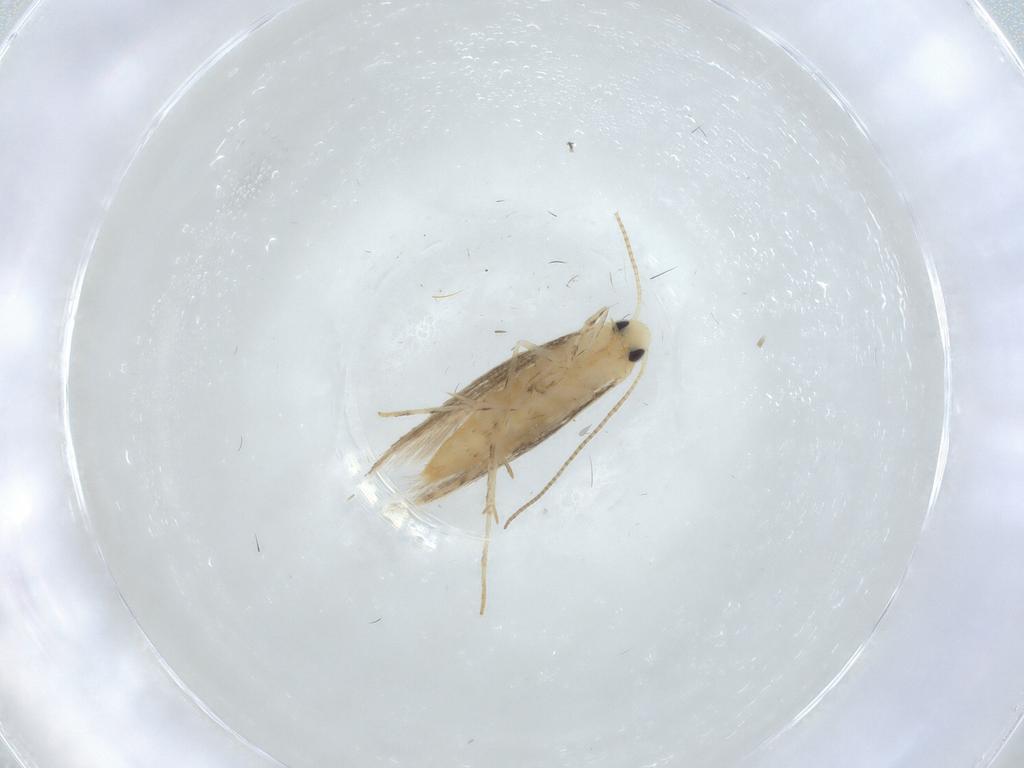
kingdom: Animalia
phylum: Arthropoda
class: Insecta
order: Lepidoptera
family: Gracillariidae
